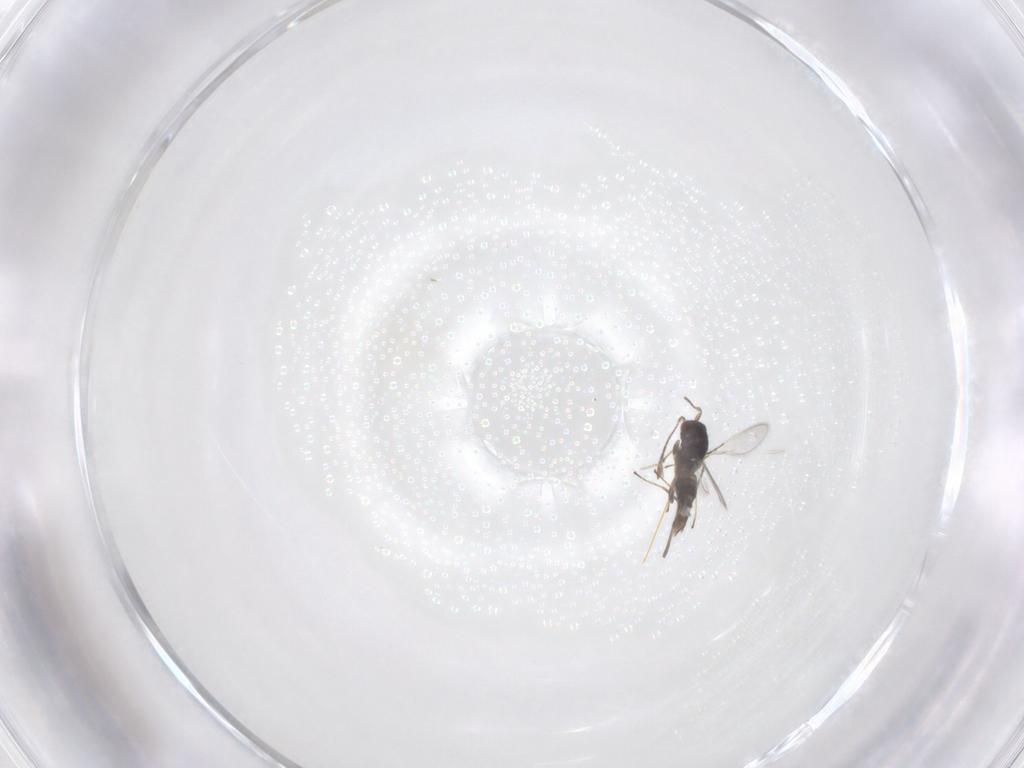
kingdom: Animalia
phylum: Arthropoda
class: Insecta
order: Hymenoptera
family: Mymaridae
